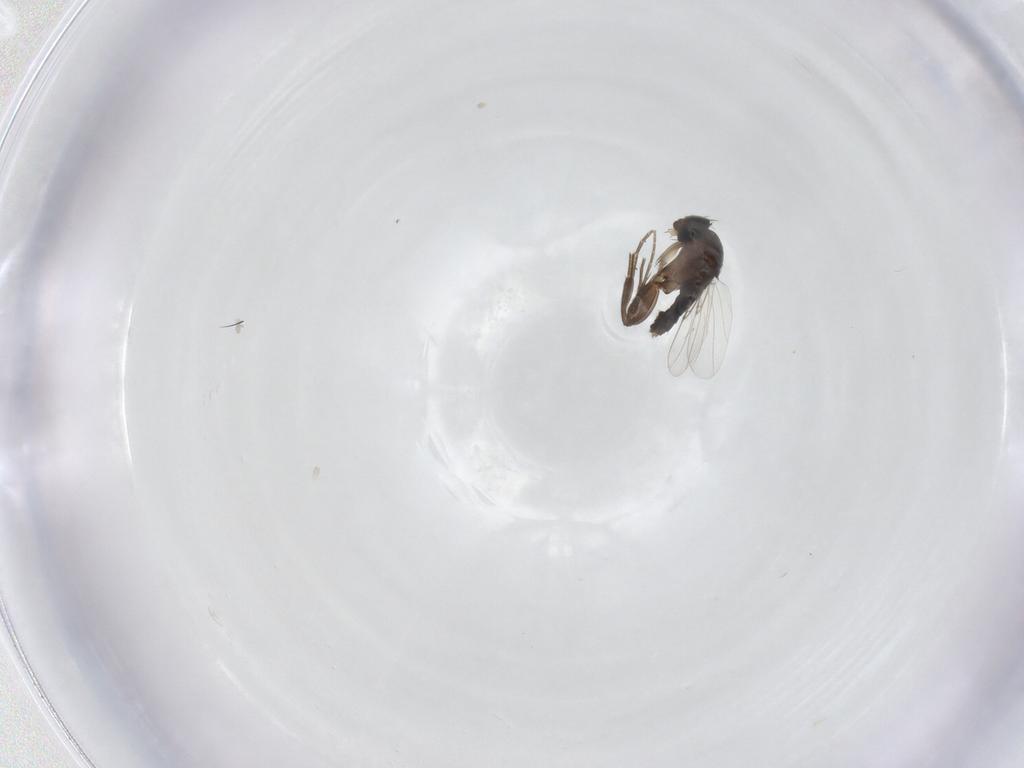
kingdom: Animalia
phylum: Arthropoda
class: Insecta
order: Diptera
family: Phoridae
